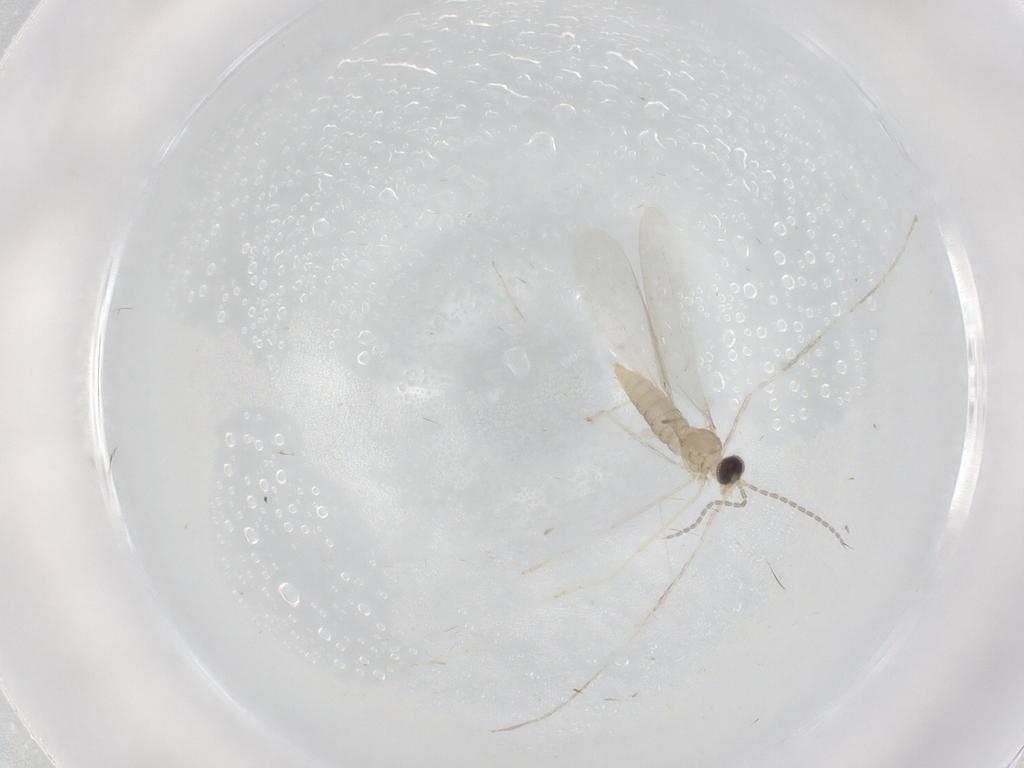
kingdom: Animalia
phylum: Arthropoda
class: Insecta
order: Diptera
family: Cecidomyiidae
